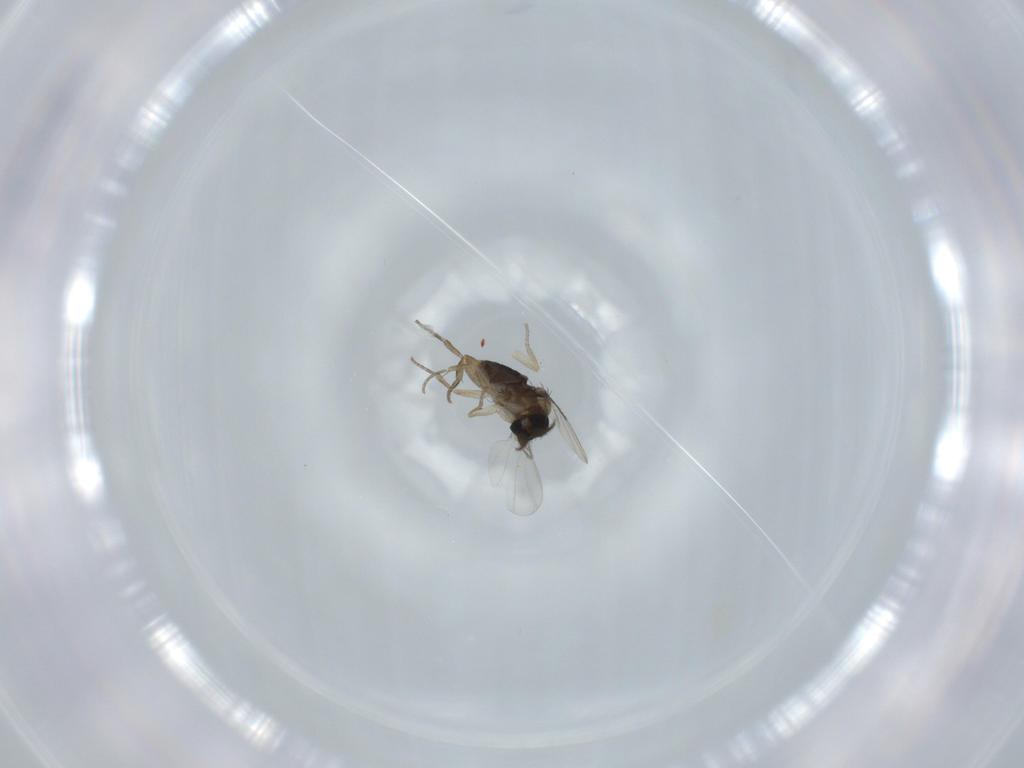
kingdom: Animalia
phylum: Arthropoda
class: Insecta
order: Diptera
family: Phoridae
